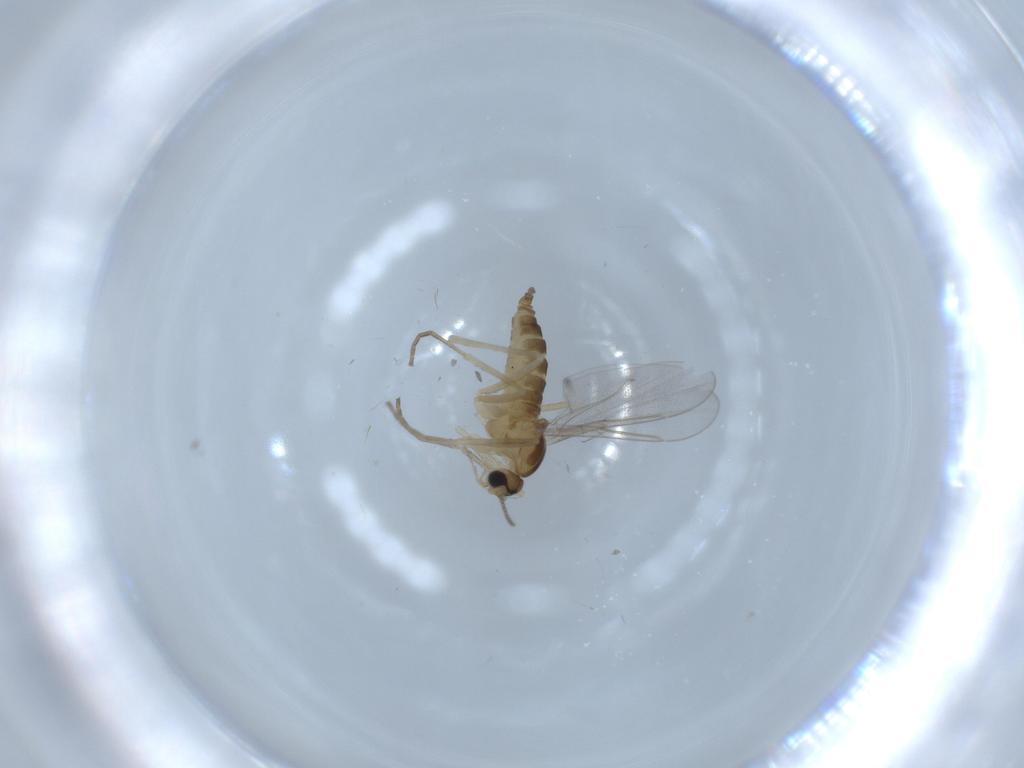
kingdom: Animalia
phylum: Arthropoda
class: Insecta
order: Diptera
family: Cecidomyiidae
